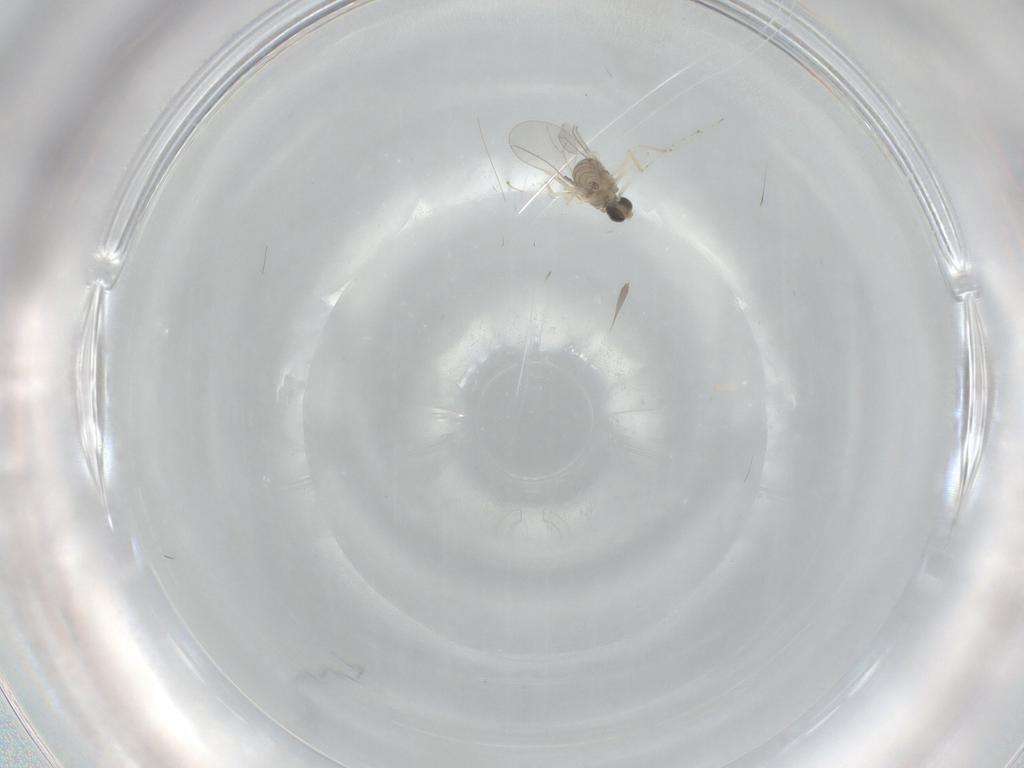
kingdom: Animalia
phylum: Arthropoda
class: Insecta
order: Diptera
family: Cecidomyiidae
